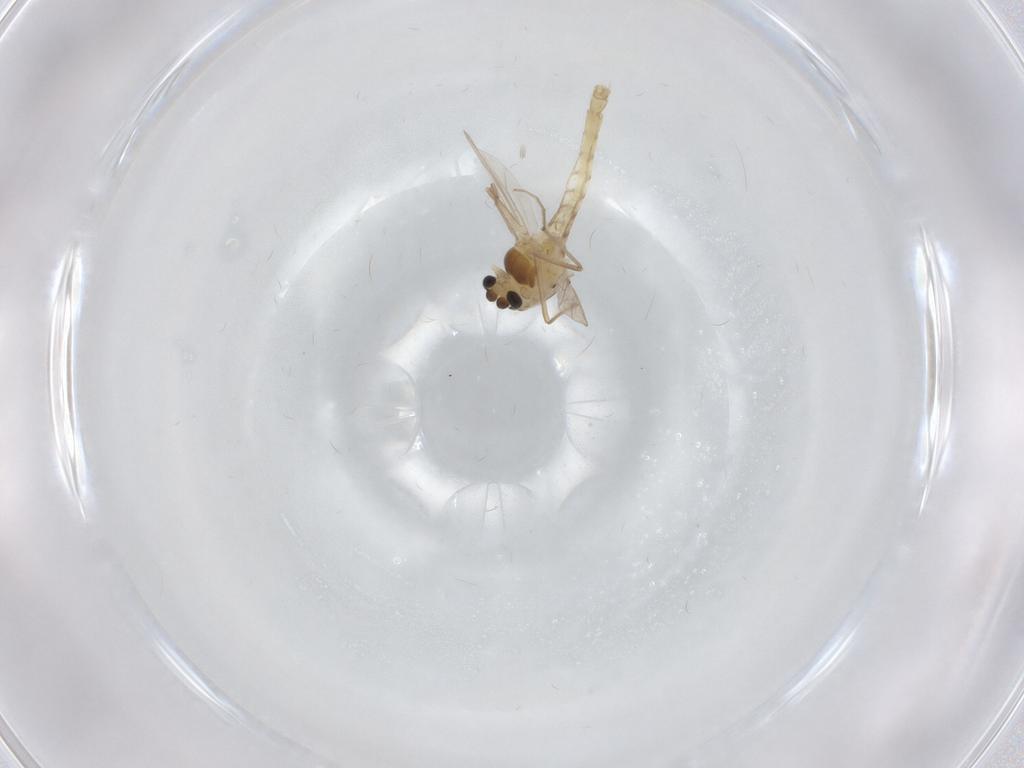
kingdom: Animalia
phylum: Arthropoda
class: Insecta
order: Diptera
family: Chironomidae
